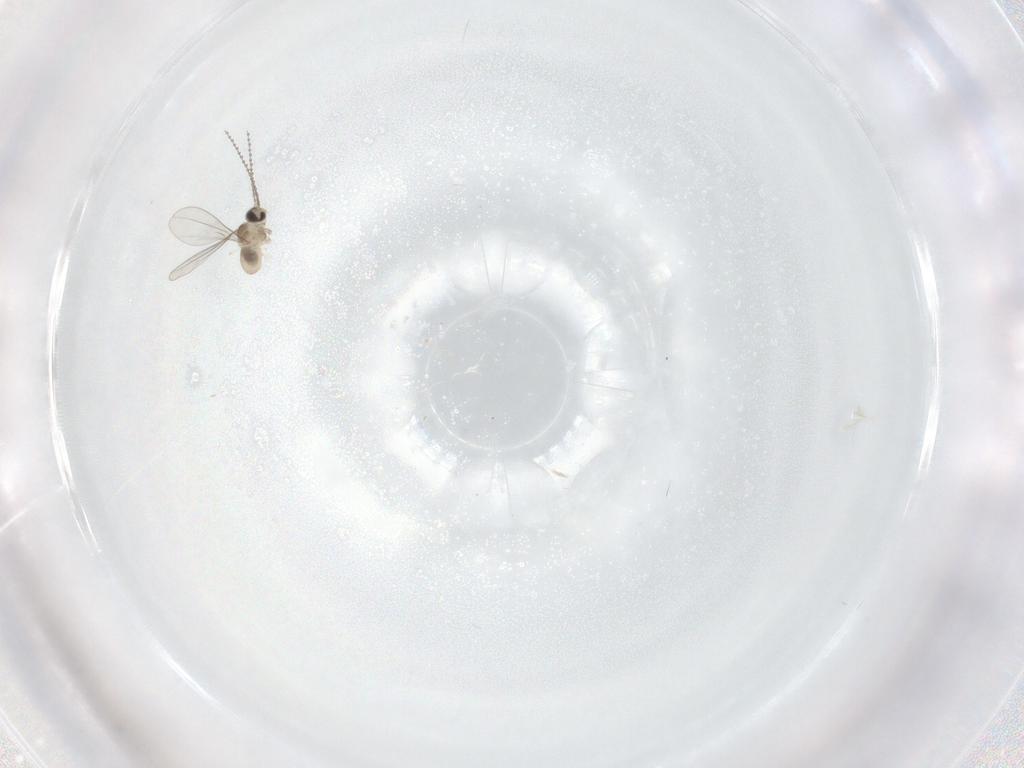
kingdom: Animalia
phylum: Arthropoda
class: Insecta
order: Diptera
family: Cecidomyiidae
